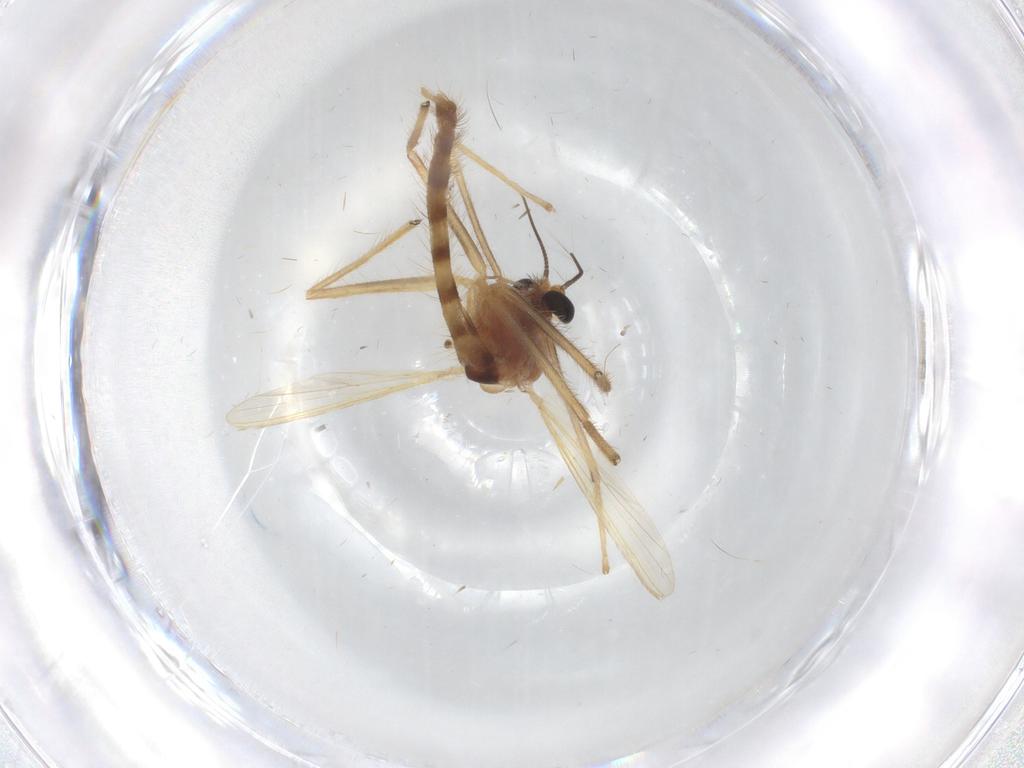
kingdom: Animalia
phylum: Arthropoda
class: Insecta
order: Diptera
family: Chironomidae
